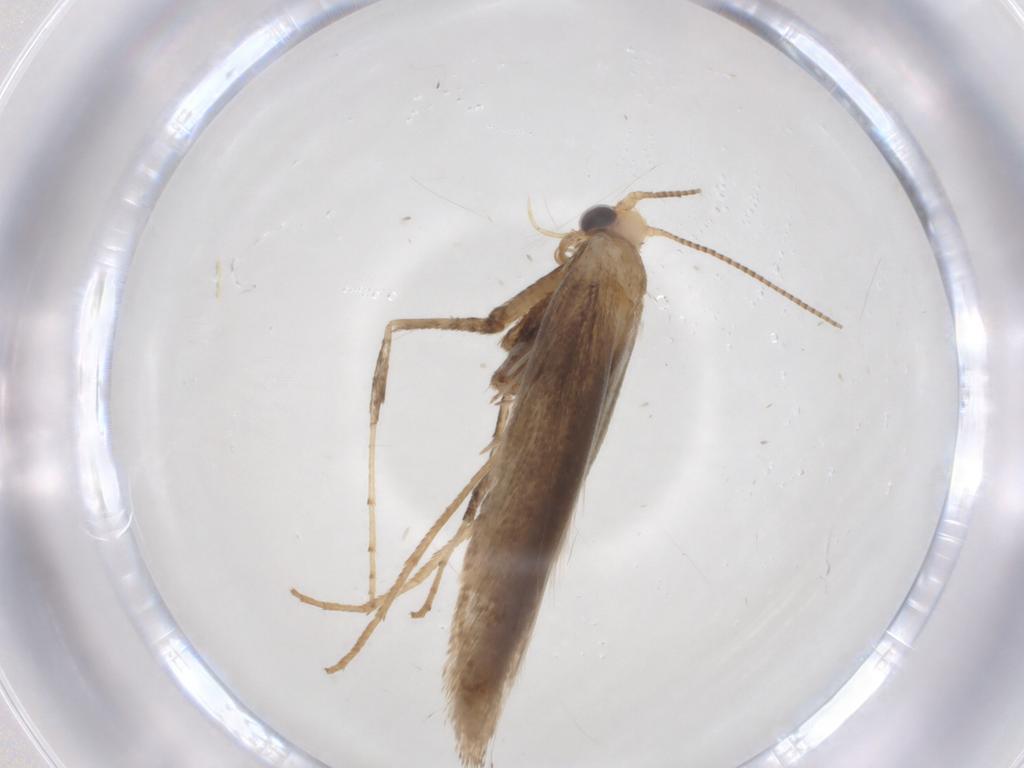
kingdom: Animalia
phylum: Arthropoda
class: Insecta
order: Lepidoptera
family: Gracillariidae
